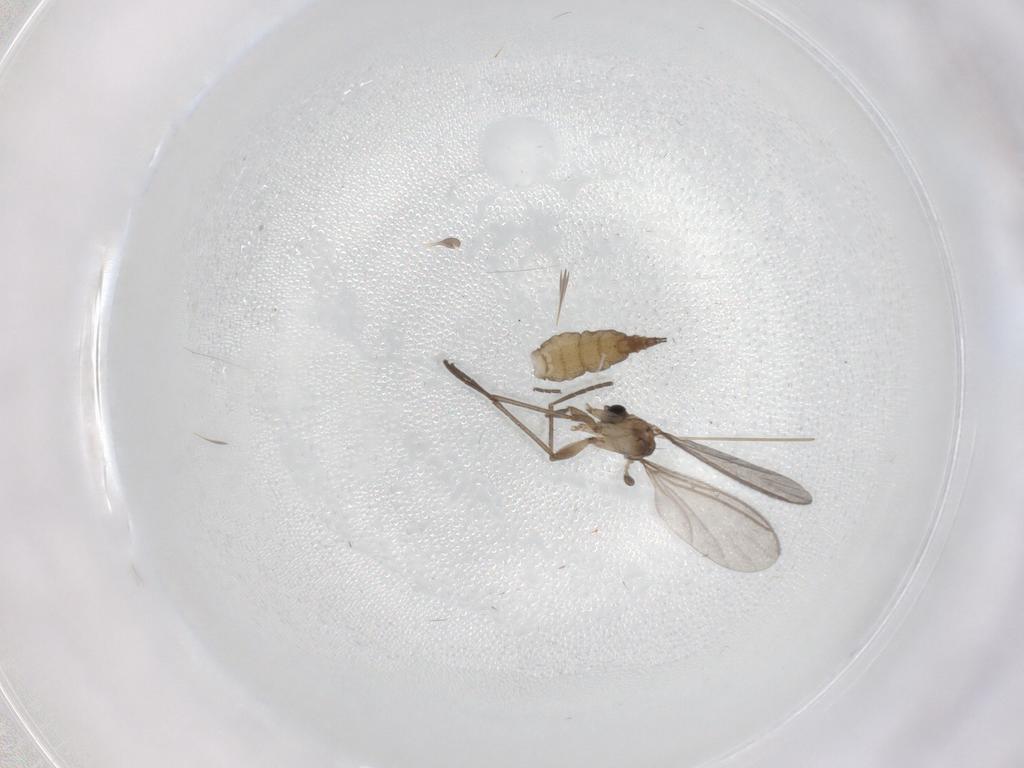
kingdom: Animalia
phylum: Arthropoda
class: Insecta
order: Diptera
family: Sciaridae
